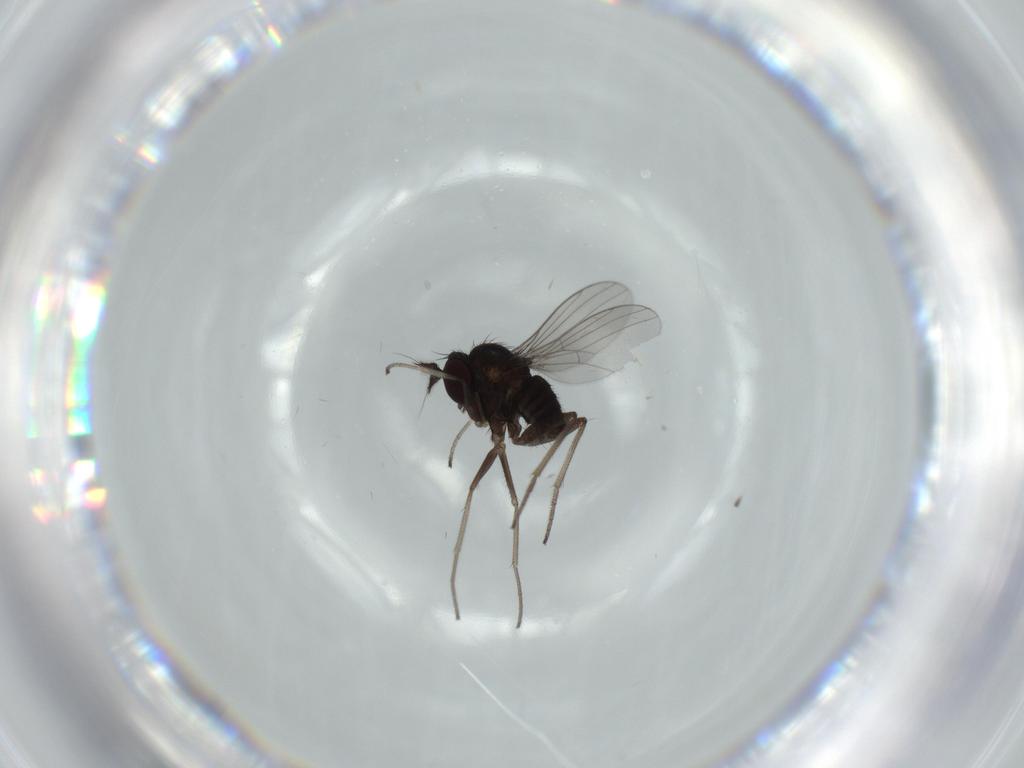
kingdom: Animalia
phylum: Arthropoda
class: Insecta
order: Diptera
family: Dolichopodidae
